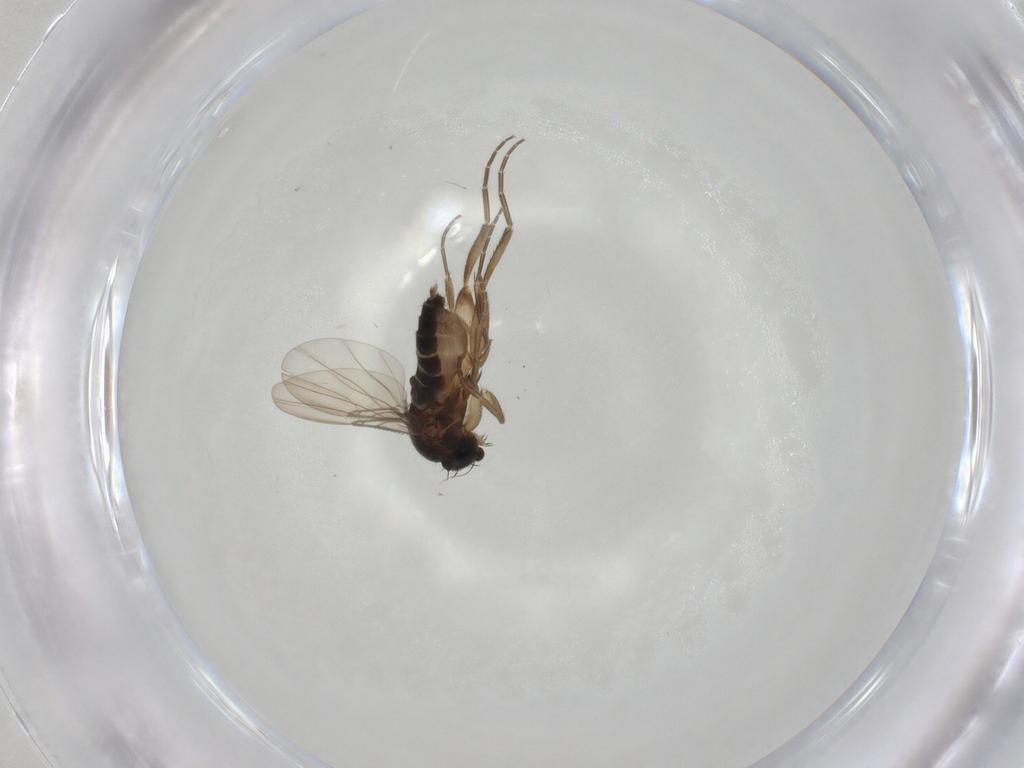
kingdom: Animalia
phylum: Arthropoda
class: Insecta
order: Diptera
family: Phoridae
